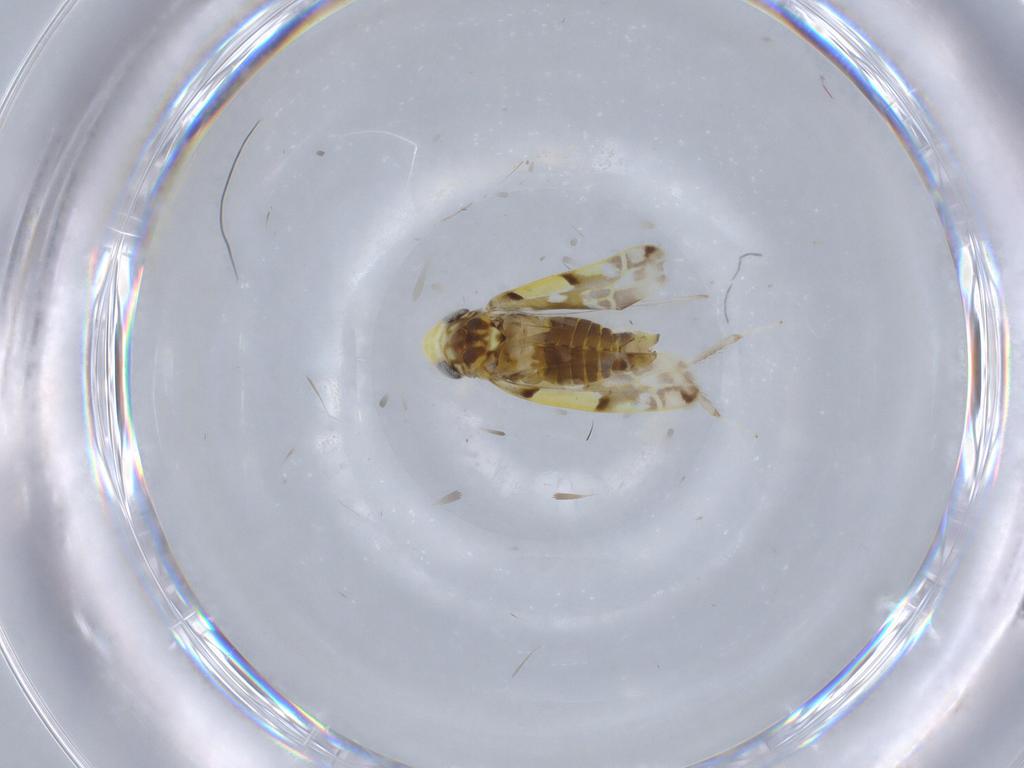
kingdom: Animalia
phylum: Arthropoda
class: Insecta
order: Hemiptera
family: Cicadellidae
